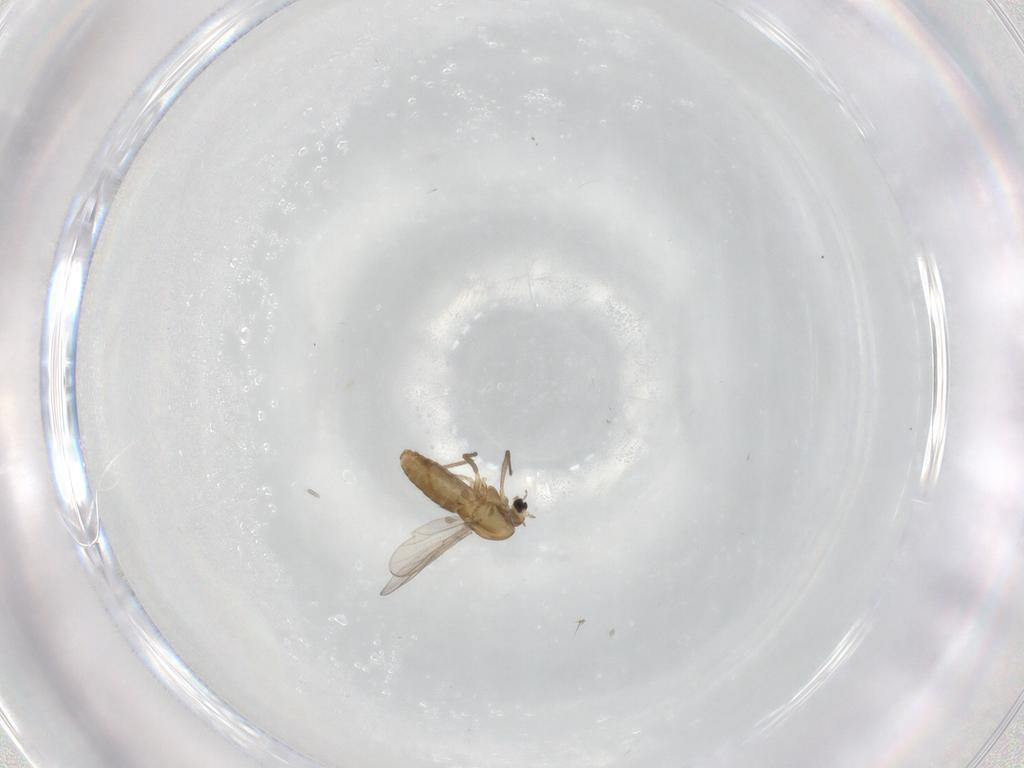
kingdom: Animalia
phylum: Arthropoda
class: Insecta
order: Diptera
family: Chironomidae
